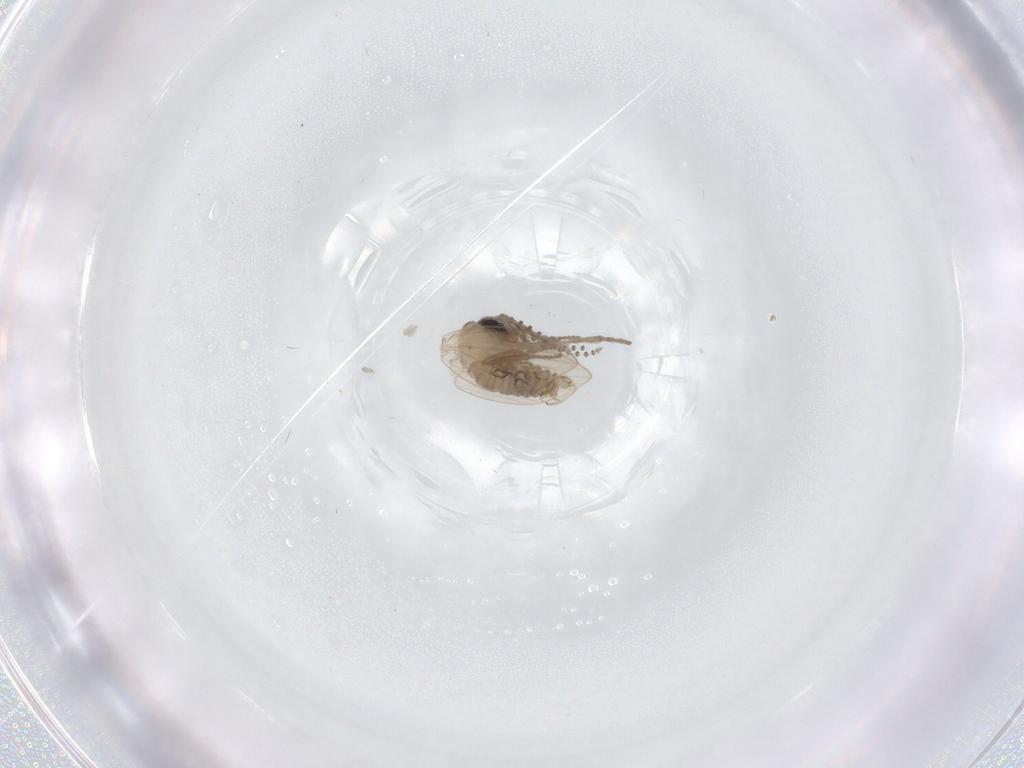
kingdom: Animalia
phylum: Arthropoda
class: Insecta
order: Diptera
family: Psychodidae
